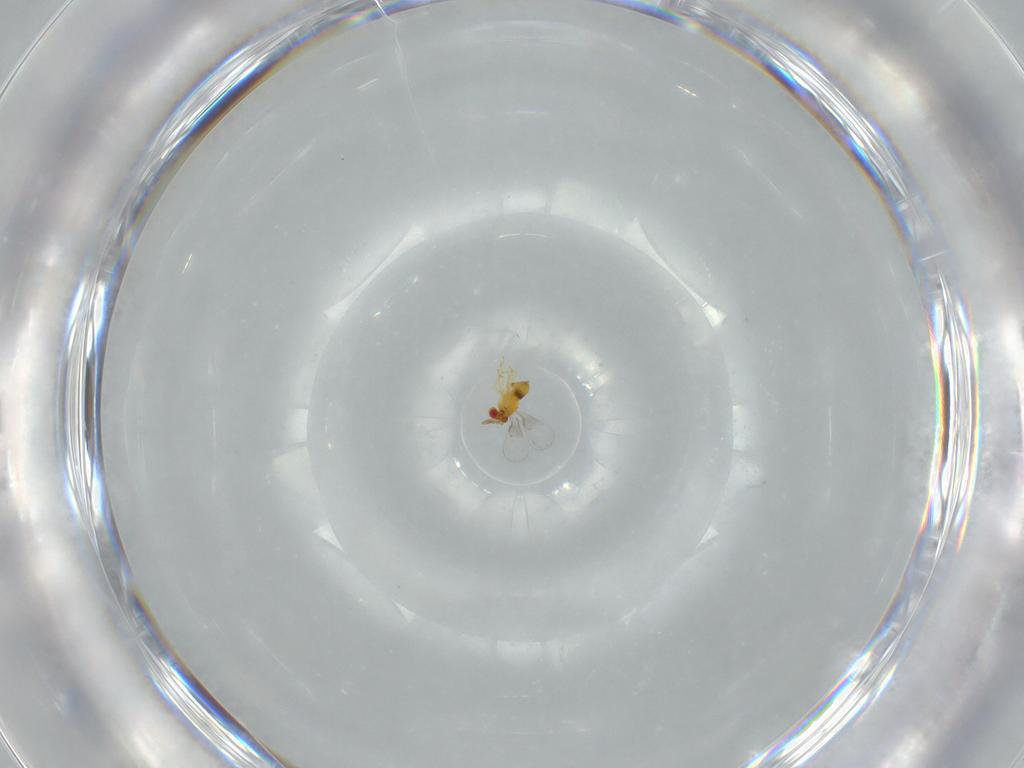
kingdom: Animalia
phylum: Arthropoda
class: Insecta
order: Hymenoptera
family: Trichogrammatidae
